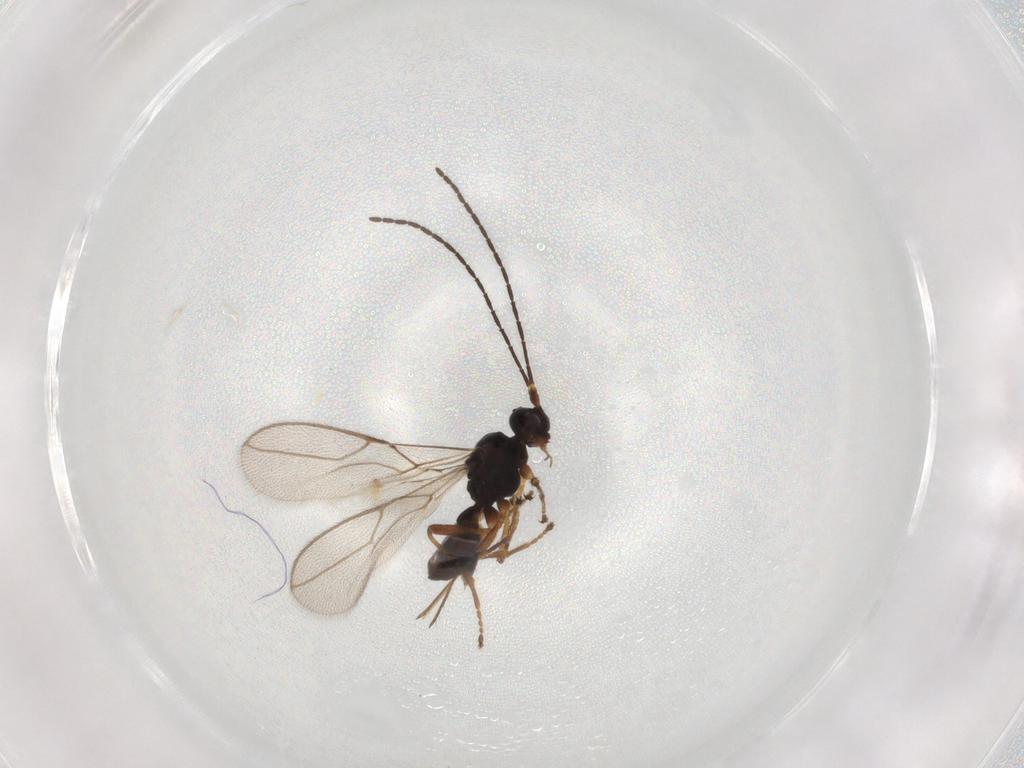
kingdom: Animalia
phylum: Arthropoda
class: Insecta
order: Hymenoptera
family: Braconidae
